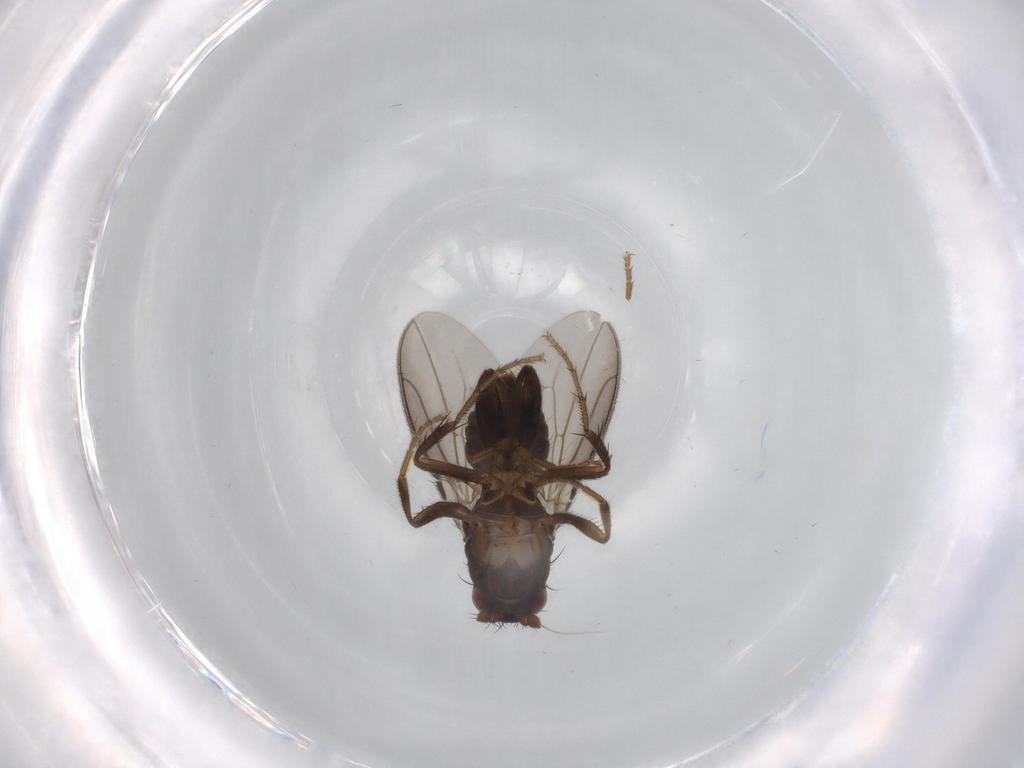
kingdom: Animalia
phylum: Arthropoda
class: Insecta
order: Diptera
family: Sphaeroceridae
